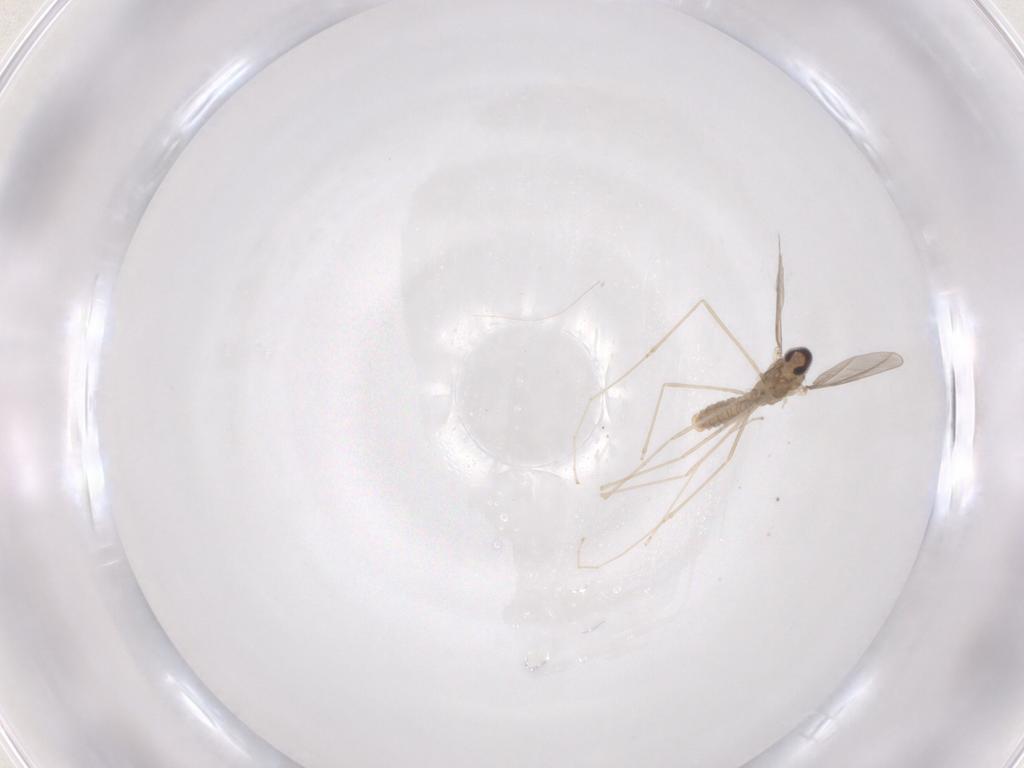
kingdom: Animalia
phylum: Arthropoda
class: Insecta
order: Diptera
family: Cecidomyiidae
